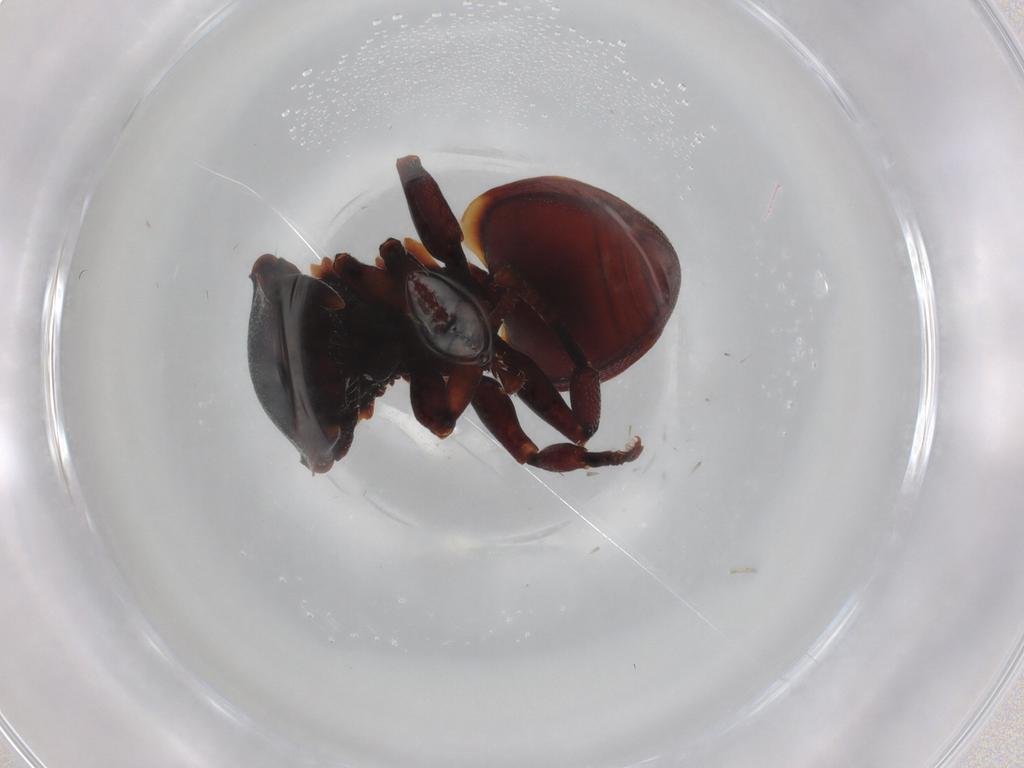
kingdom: Animalia
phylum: Arthropoda
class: Insecta
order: Hymenoptera
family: Formicidae
